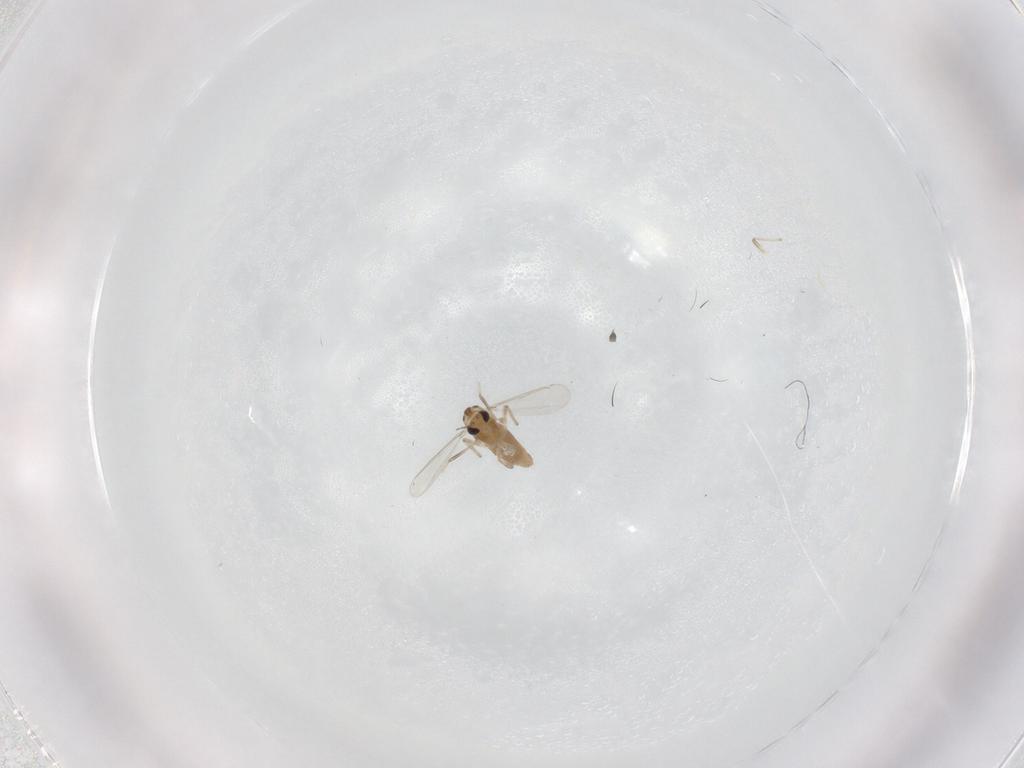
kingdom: Animalia
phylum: Arthropoda
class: Insecta
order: Diptera
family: Chironomidae
